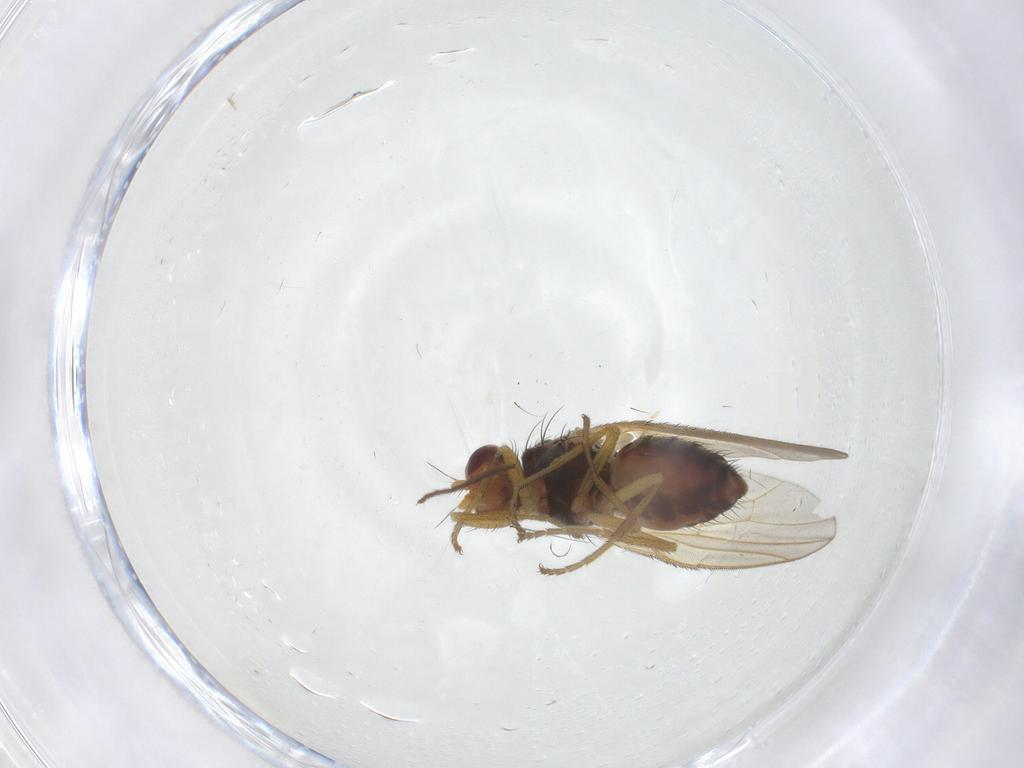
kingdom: Animalia
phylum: Arthropoda
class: Insecta
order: Diptera
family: Heleomyzidae
